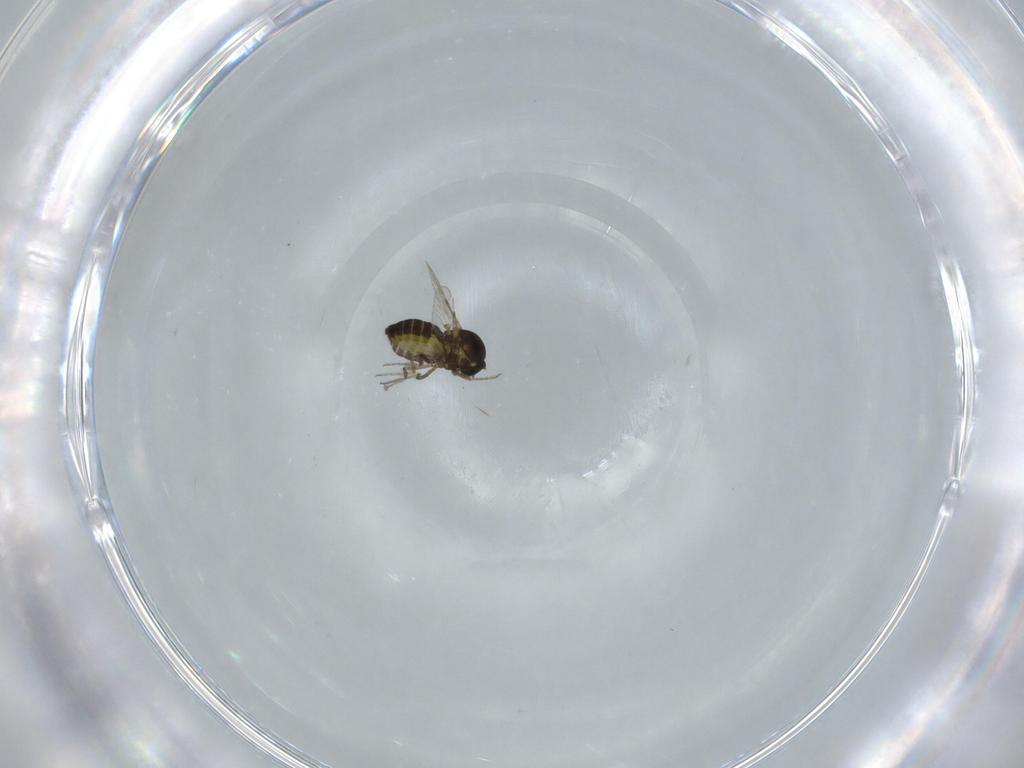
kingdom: Animalia
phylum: Arthropoda
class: Insecta
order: Diptera
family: Ceratopogonidae
